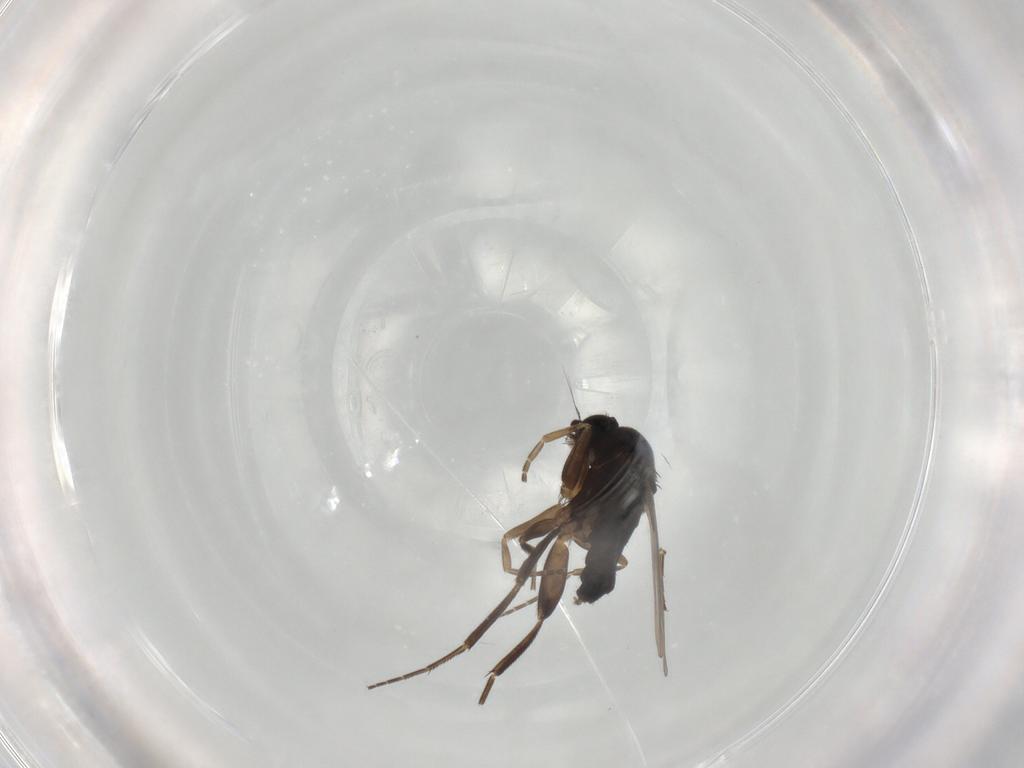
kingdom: Animalia
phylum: Arthropoda
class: Insecta
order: Diptera
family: Phoridae
